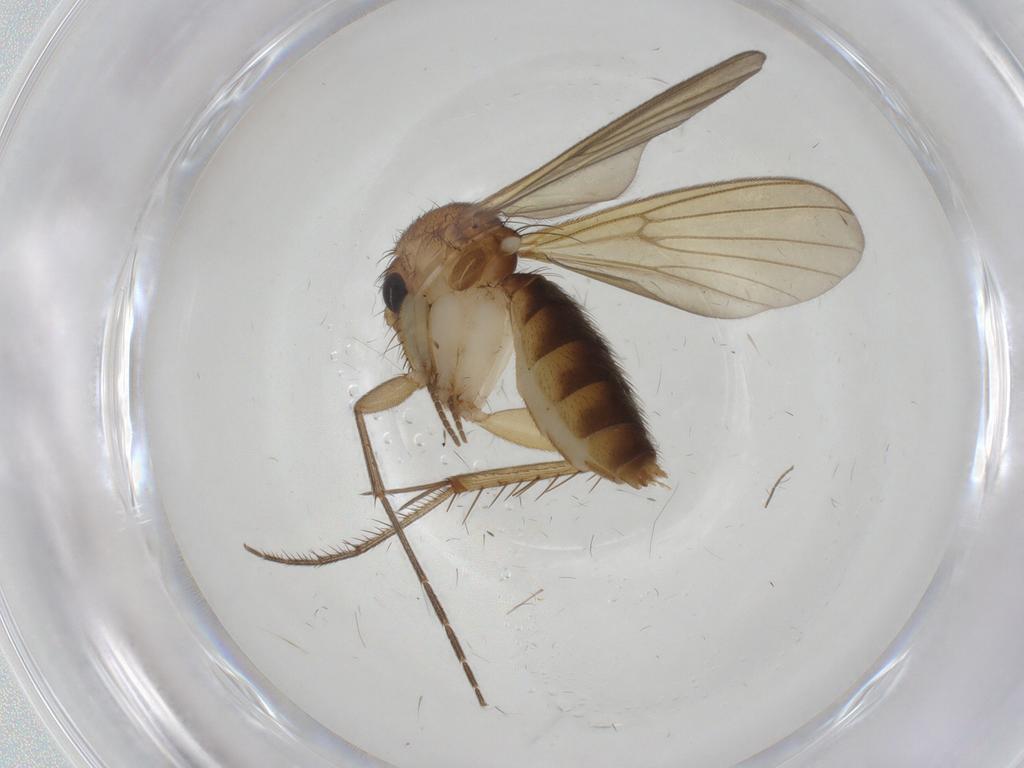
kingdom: Animalia
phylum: Arthropoda
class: Insecta
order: Diptera
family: Mycetophilidae
